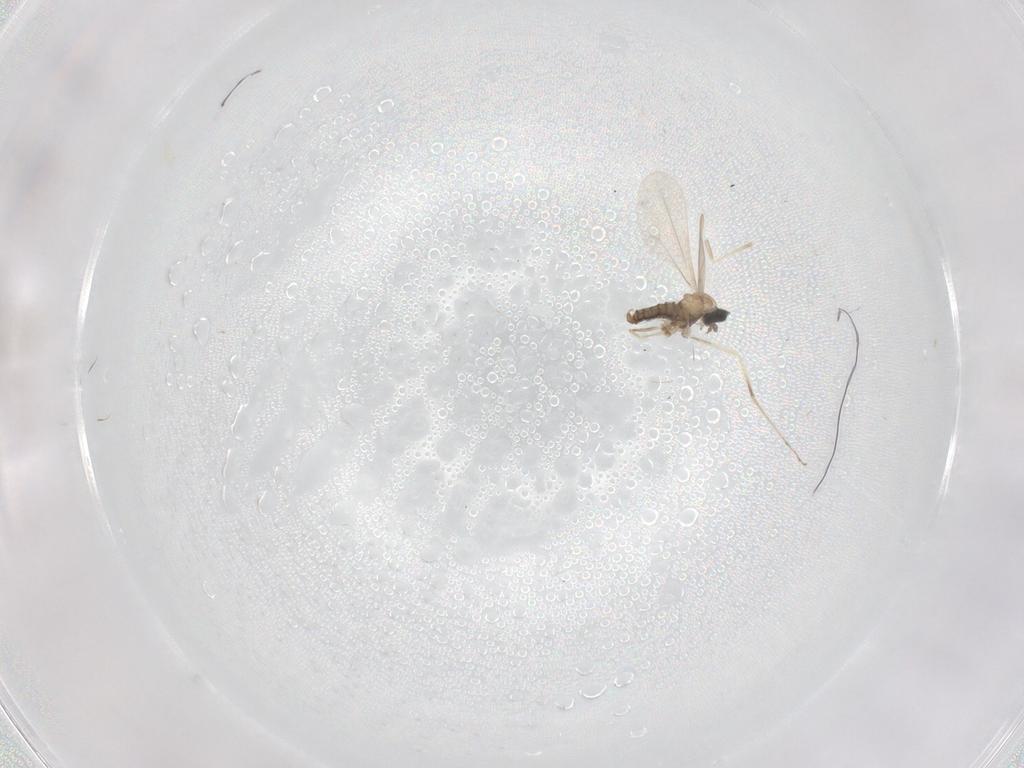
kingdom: Animalia
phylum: Arthropoda
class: Insecta
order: Diptera
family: Cecidomyiidae
